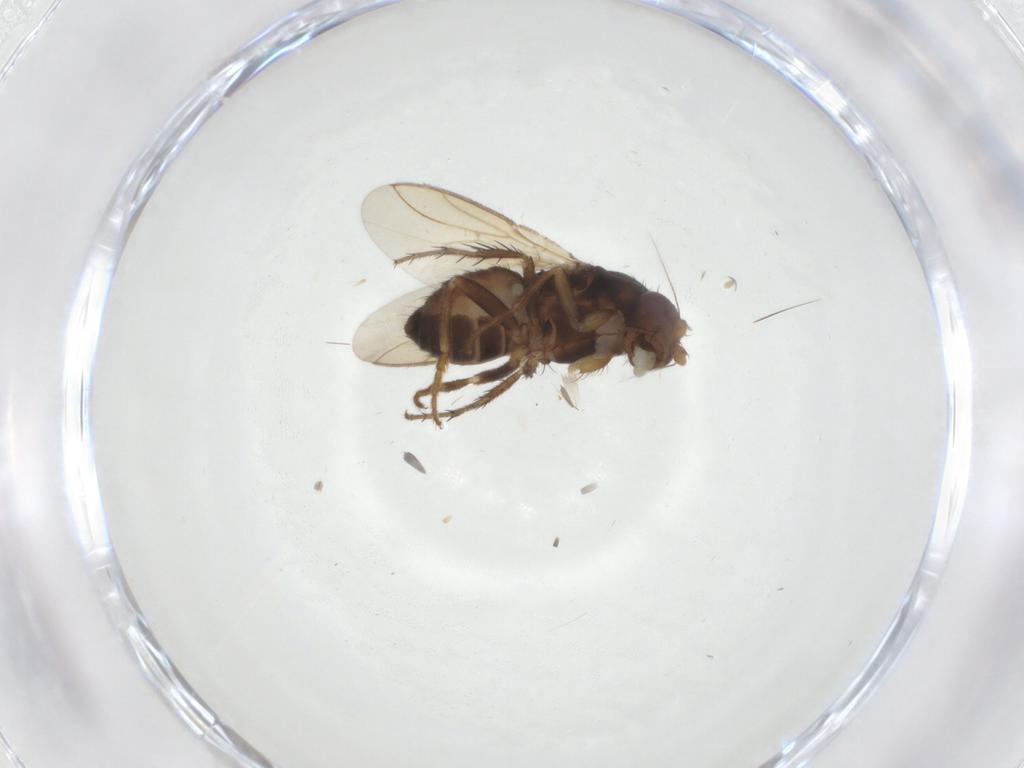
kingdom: Animalia
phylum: Arthropoda
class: Insecta
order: Diptera
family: Sphaeroceridae
